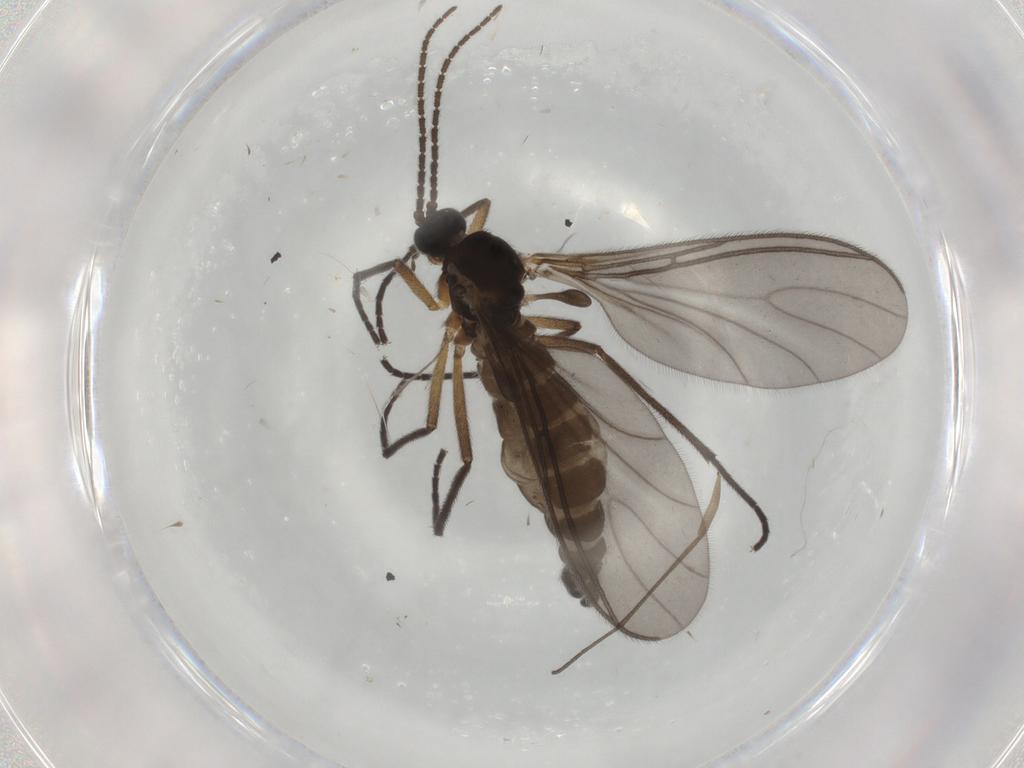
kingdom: Animalia
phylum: Arthropoda
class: Insecta
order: Diptera
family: Sciaridae
